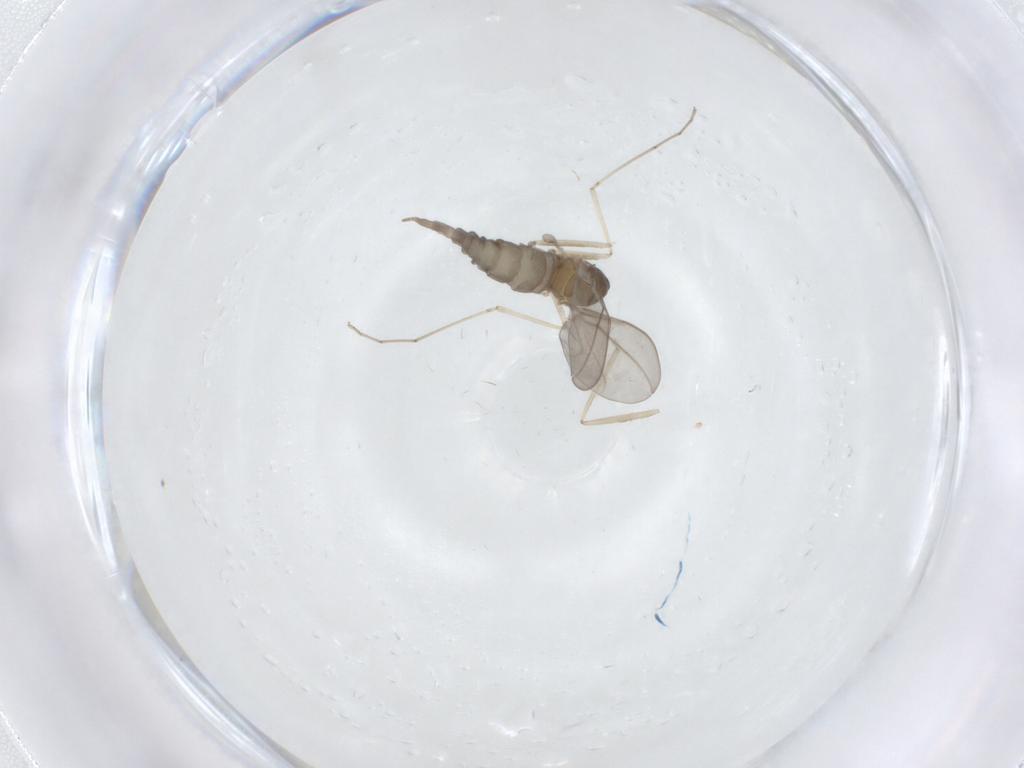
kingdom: Animalia
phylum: Arthropoda
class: Insecta
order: Diptera
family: Cecidomyiidae
